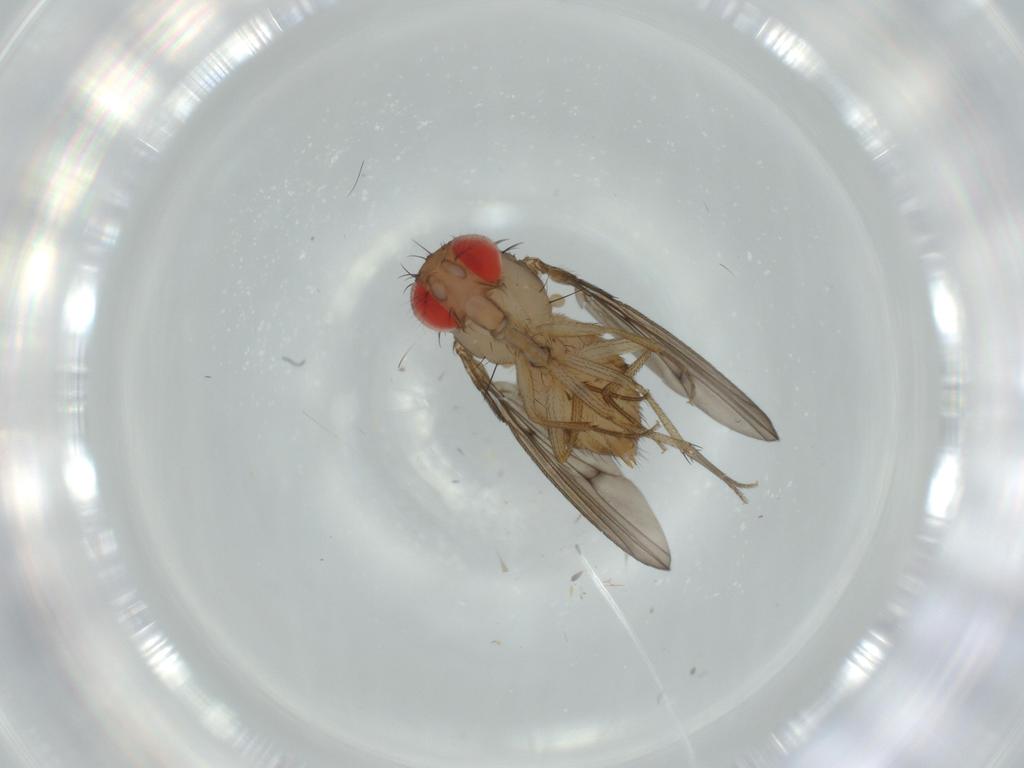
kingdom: Animalia
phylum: Arthropoda
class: Insecta
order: Diptera
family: Drosophilidae
